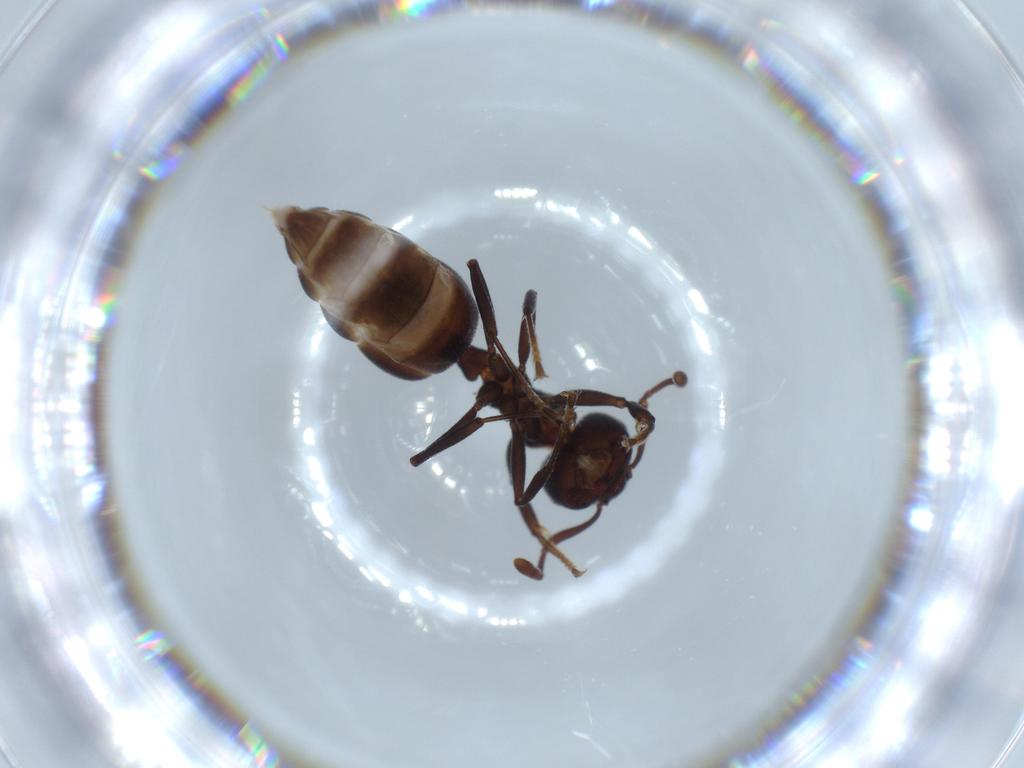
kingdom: Animalia
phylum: Arthropoda
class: Insecta
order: Hymenoptera
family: Formicidae
